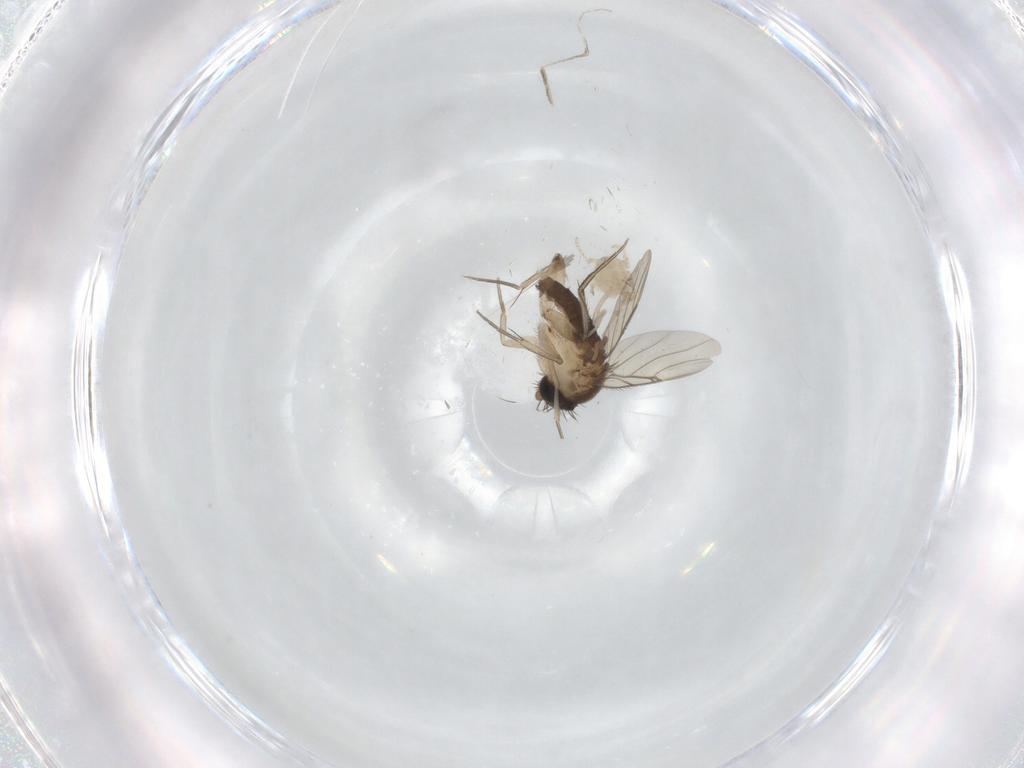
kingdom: Animalia
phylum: Arthropoda
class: Insecta
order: Diptera
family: Cecidomyiidae
